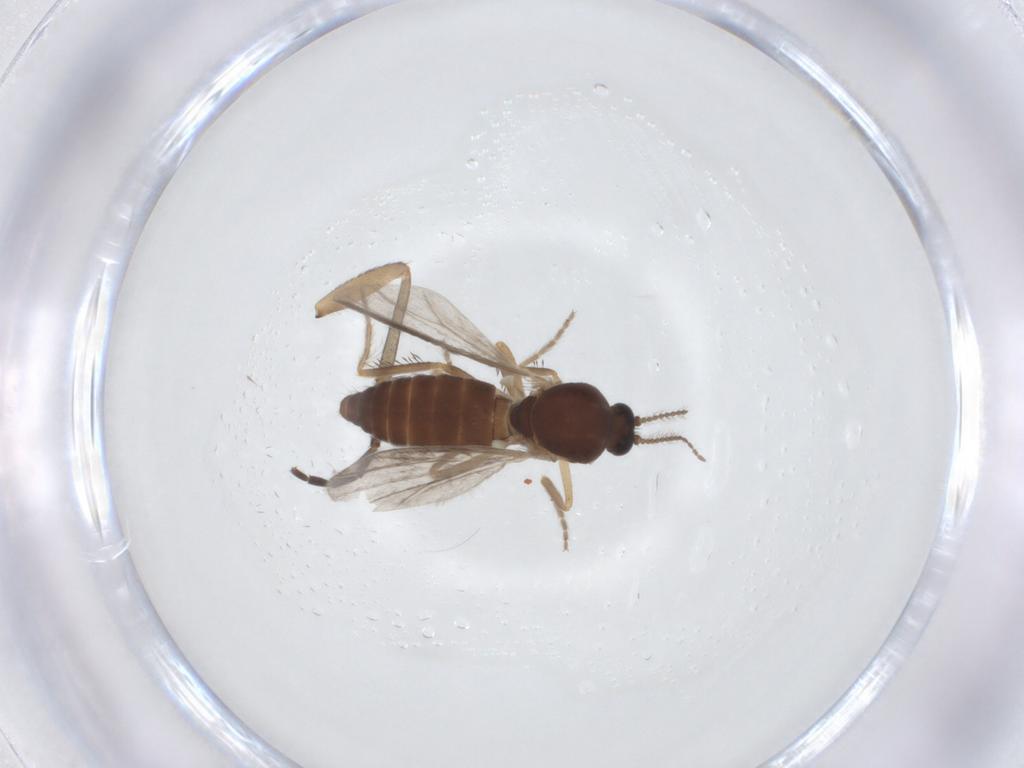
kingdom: Animalia
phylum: Arthropoda
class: Insecta
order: Diptera
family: Ceratopogonidae
